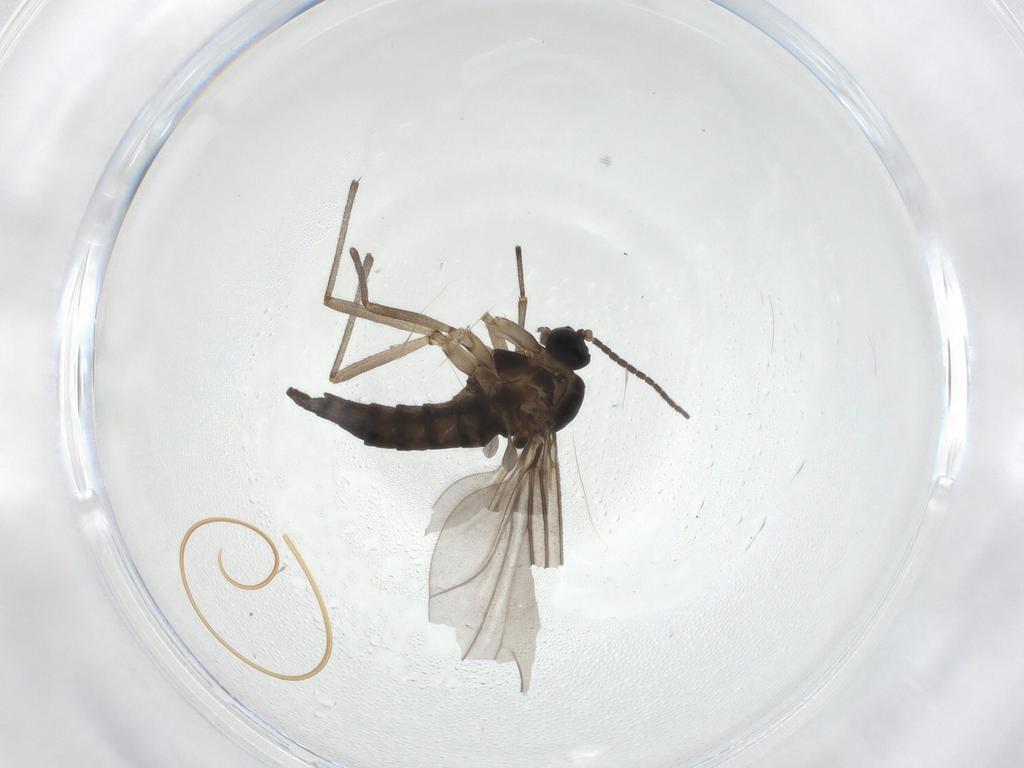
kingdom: Animalia
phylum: Arthropoda
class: Insecta
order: Diptera
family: Sciaridae
